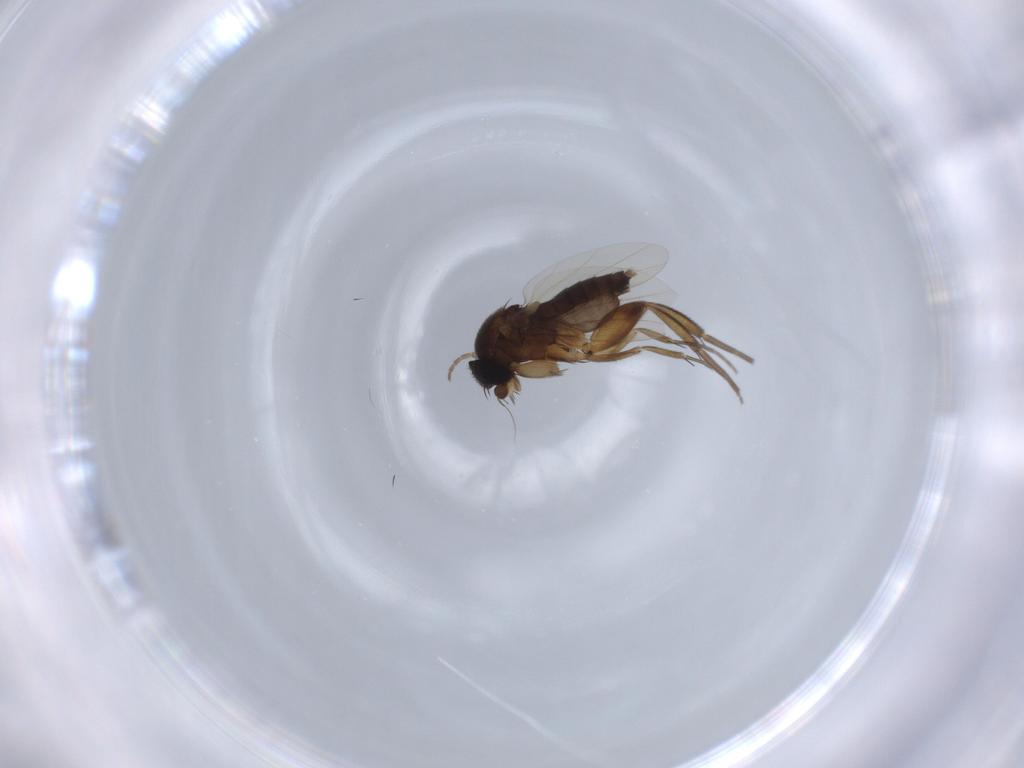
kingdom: Animalia
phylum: Arthropoda
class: Insecta
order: Diptera
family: Phoridae
